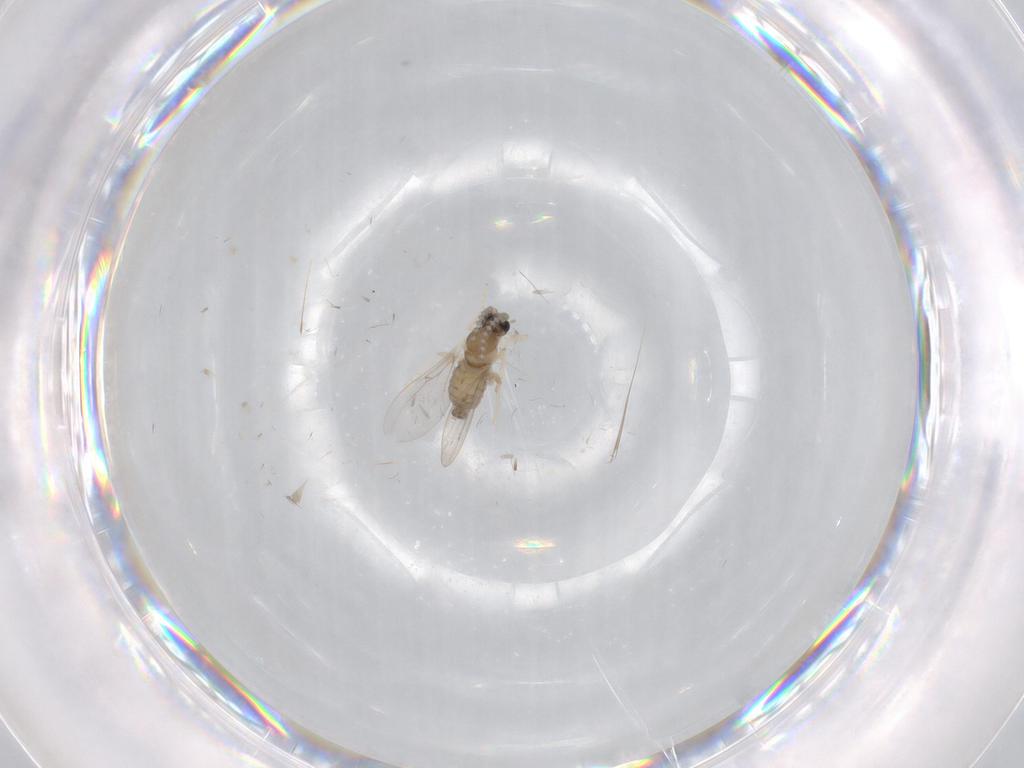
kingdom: Animalia
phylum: Arthropoda
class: Insecta
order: Diptera
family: Cecidomyiidae
